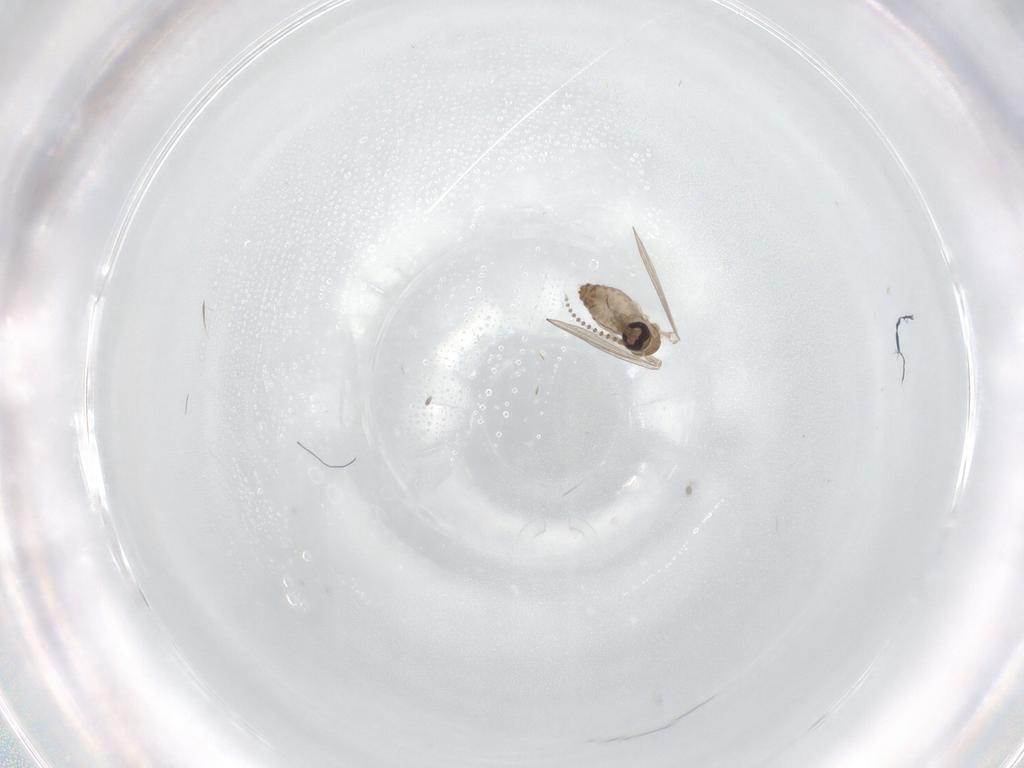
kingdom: Animalia
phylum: Arthropoda
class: Insecta
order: Diptera
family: Psychodidae
